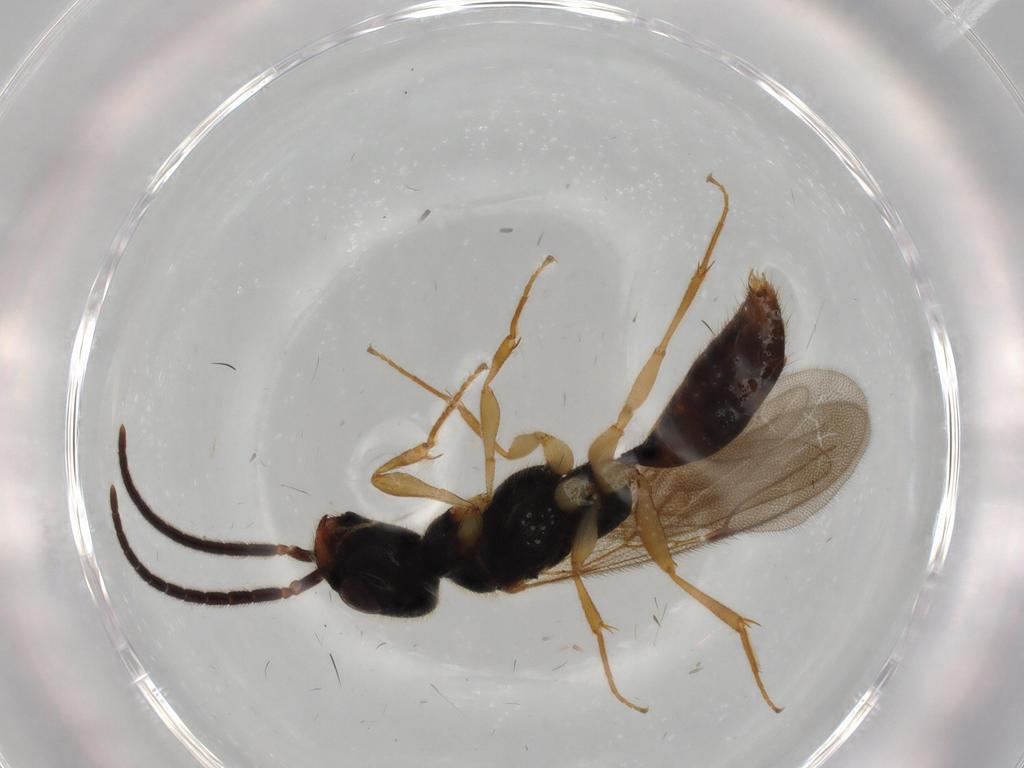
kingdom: Animalia
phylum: Arthropoda
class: Insecta
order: Hymenoptera
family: Bethylidae
